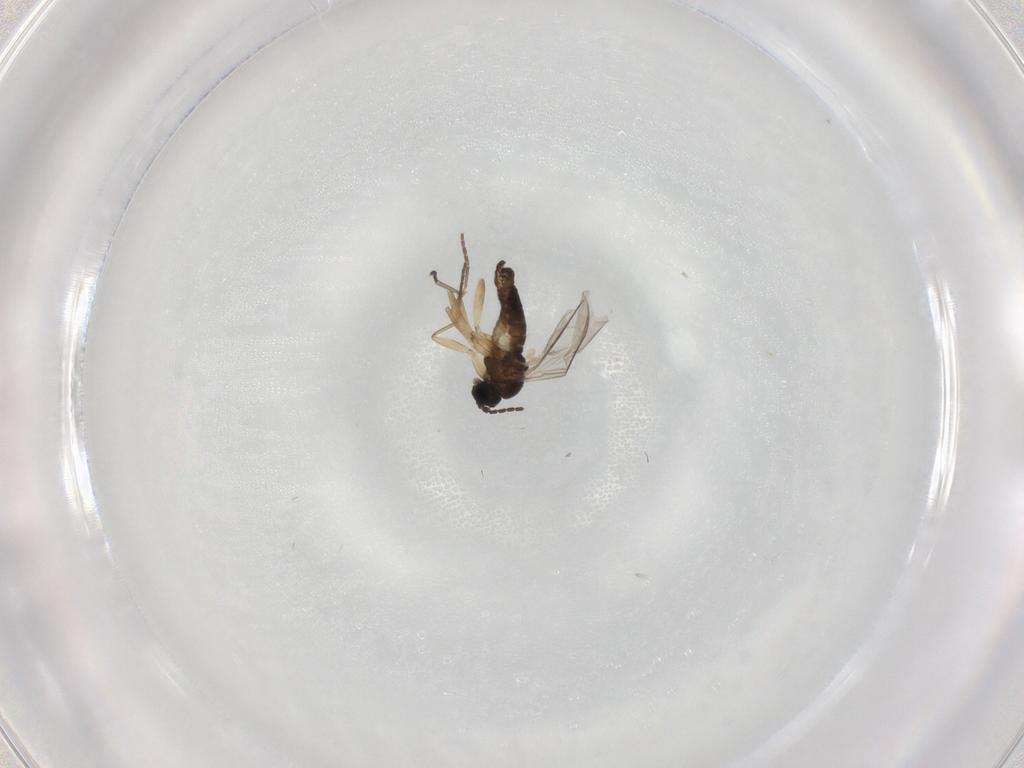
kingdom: Animalia
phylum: Arthropoda
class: Insecta
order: Diptera
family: Sciaridae
